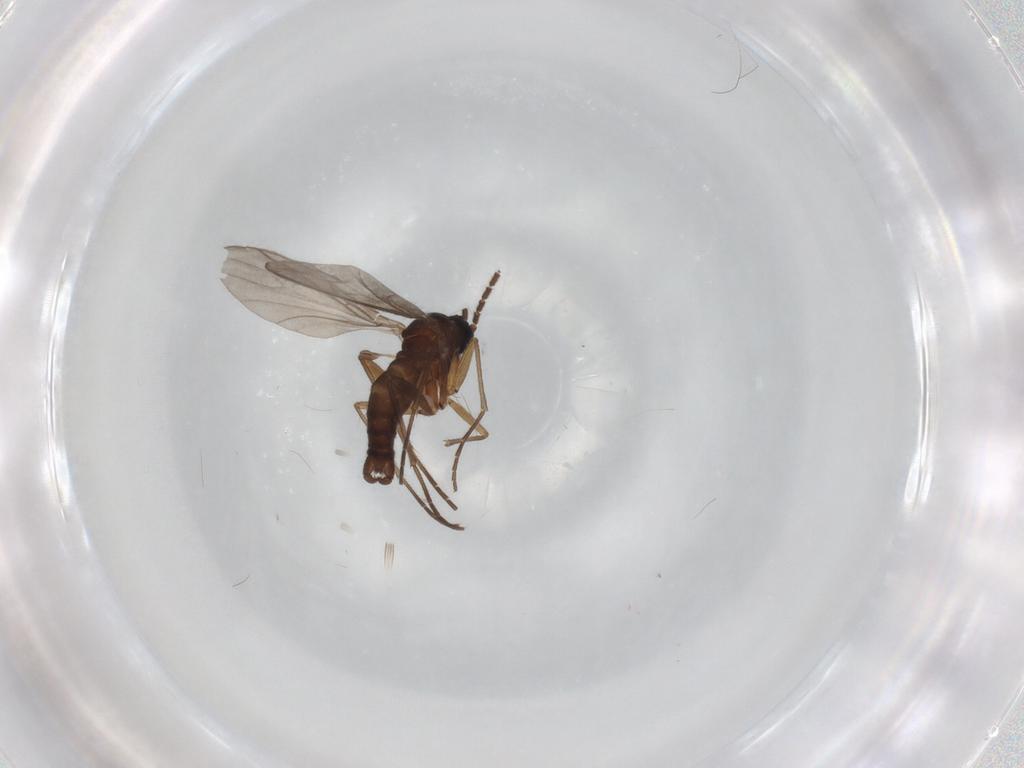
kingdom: Animalia
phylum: Arthropoda
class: Insecta
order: Diptera
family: Sciaridae
